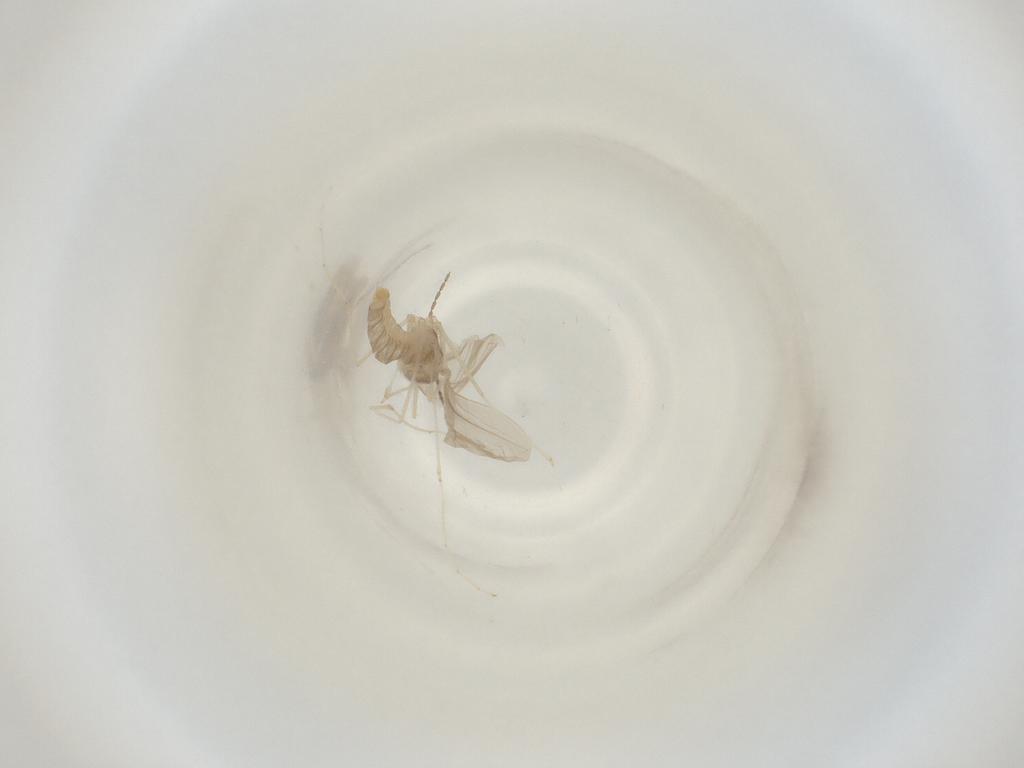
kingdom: Animalia
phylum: Arthropoda
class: Insecta
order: Diptera
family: Cecidomyiidae
